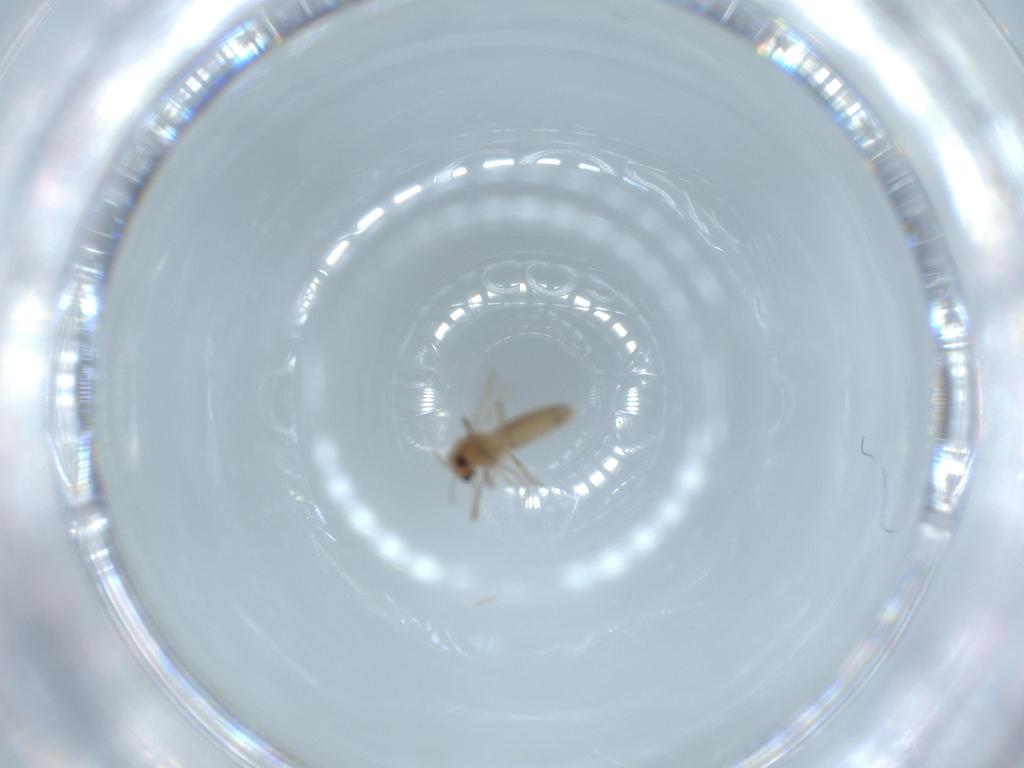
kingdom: Animalia
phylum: Arthropoda
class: Insecta
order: Diptera
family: Chironomidae
